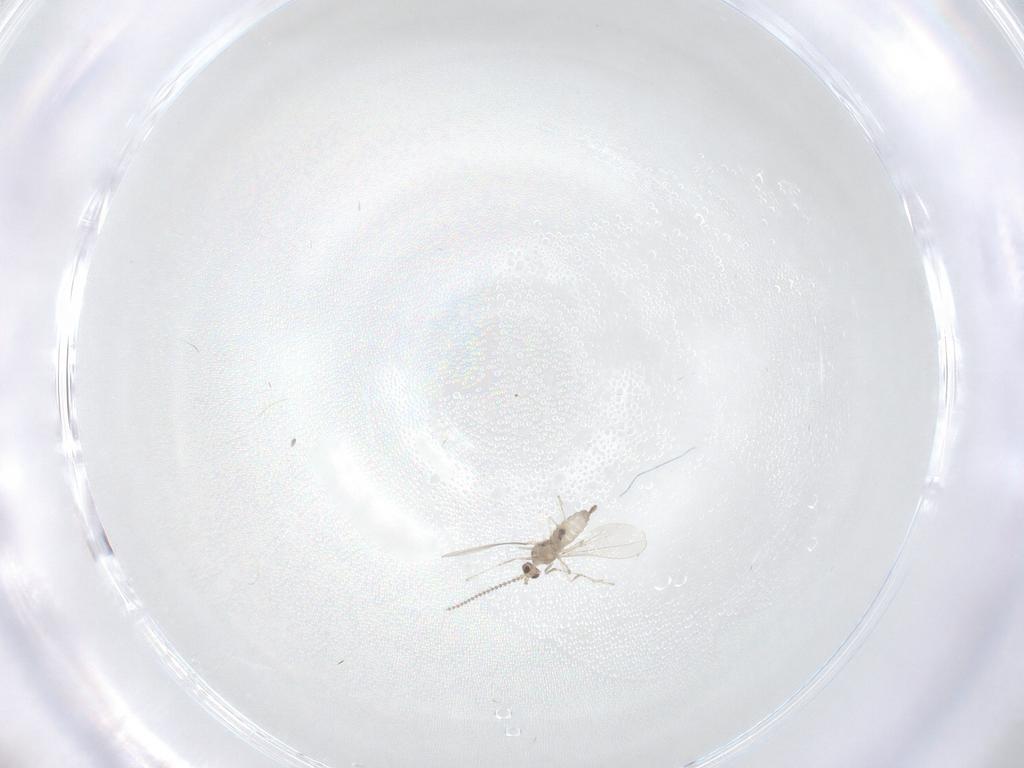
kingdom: Animalia
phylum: Arthropoda
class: Insecta
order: Diptera
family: Cecidomyiidae
